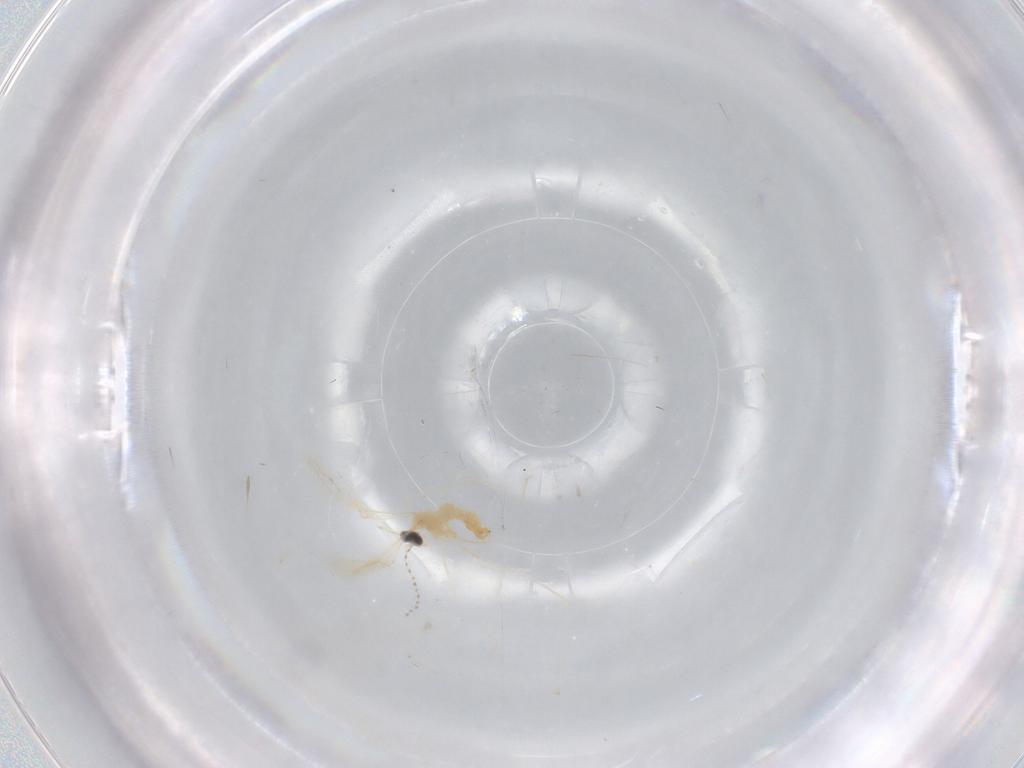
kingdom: Animalia
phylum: Arthropoda
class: Insecta
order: Diptera
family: Cecidomyiidae
